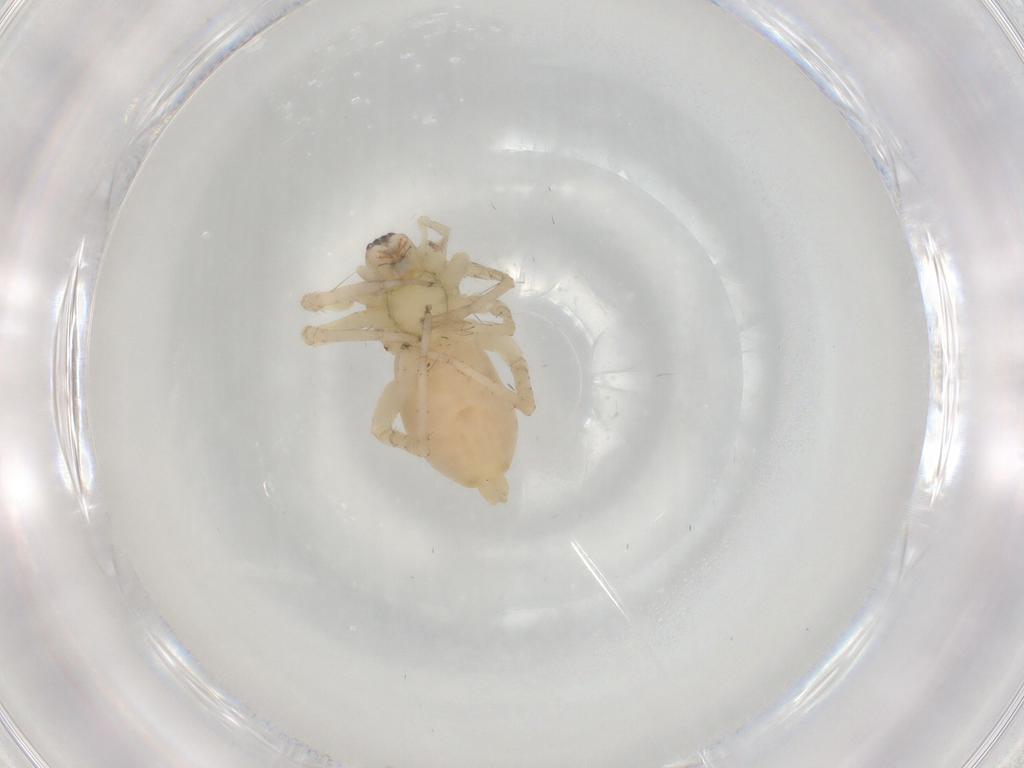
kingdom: Animalia
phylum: Arthropoda
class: Arachnida
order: Araneae
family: Anyphaenidae
